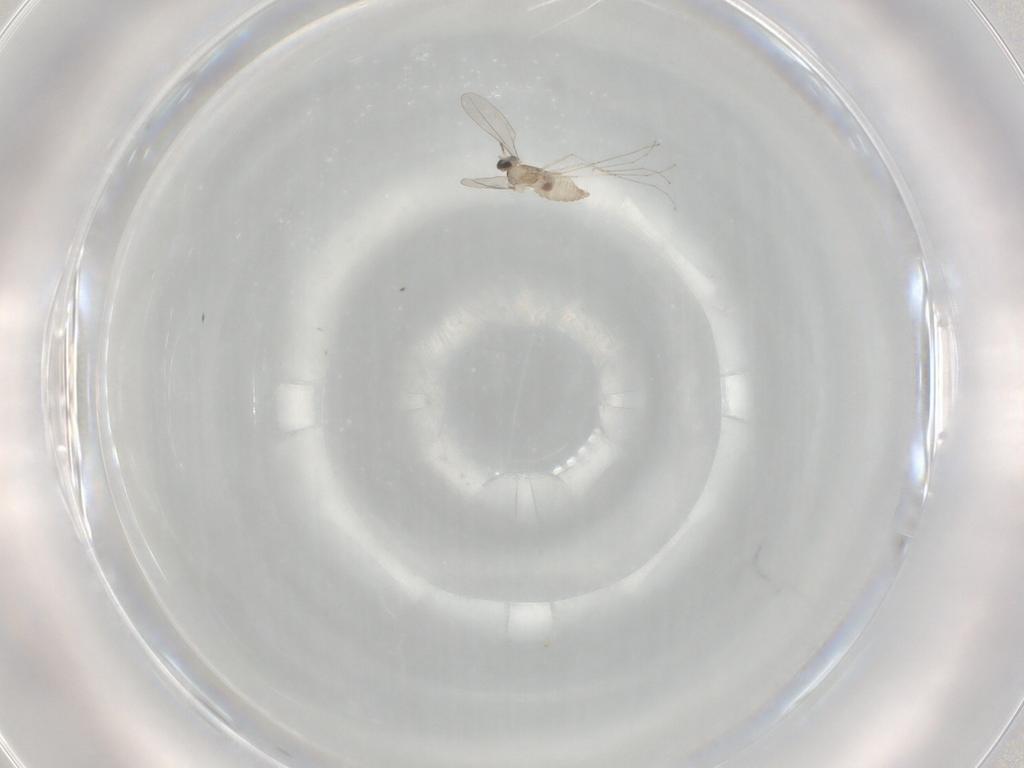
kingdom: Animalia
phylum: Arthropoda
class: Insecta
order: Diptera
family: Cecidomyiidae
